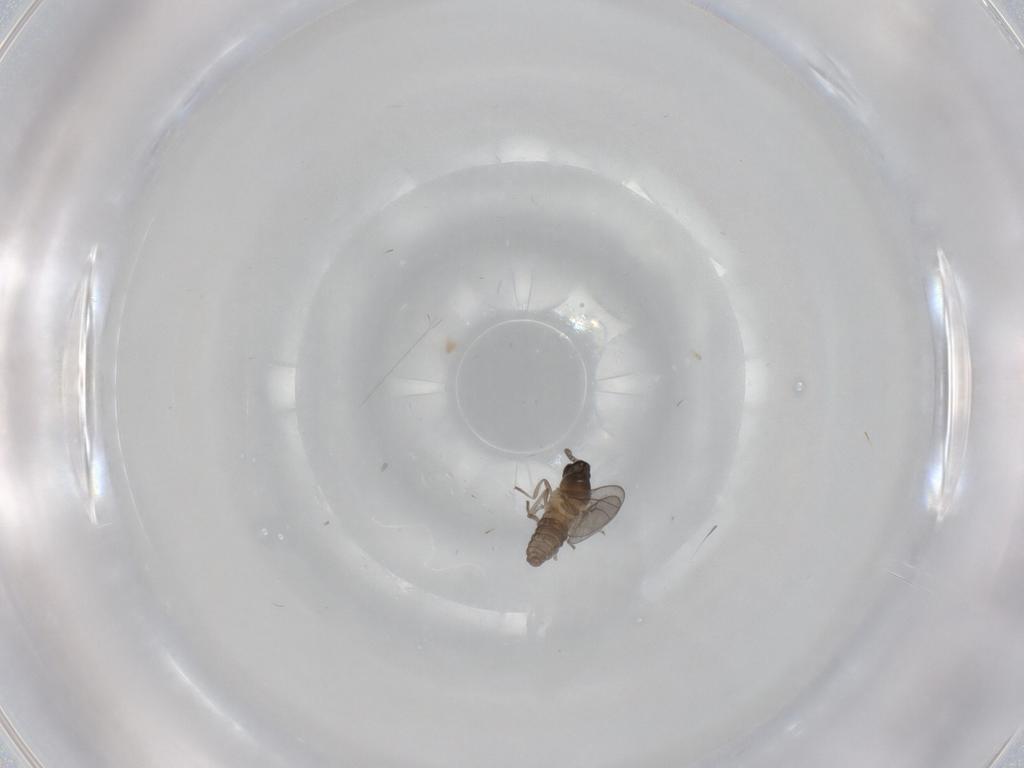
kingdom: Animalia
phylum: Arthropoda
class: Insecta
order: Diptera
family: Cecidomyiidae
